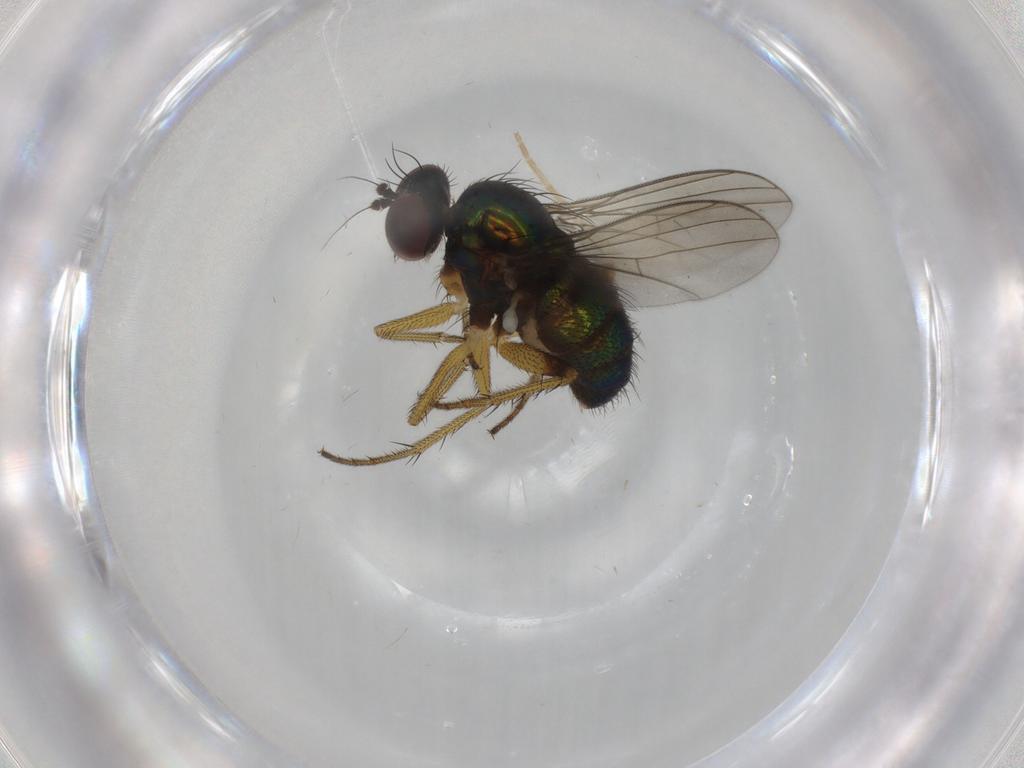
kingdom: Animalia
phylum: Arthropoda
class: Insecta
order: Diptera
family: Dolichopodidae
